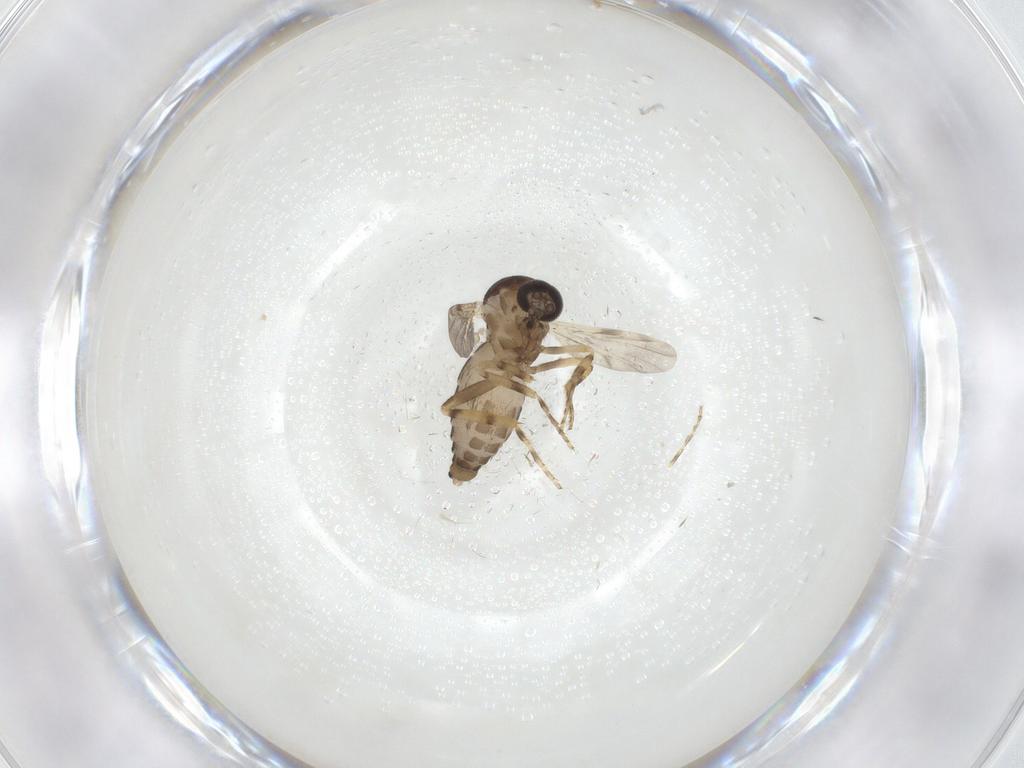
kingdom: Animalia
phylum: Arthropoda
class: Insecta
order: Diptera
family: Ceratopogonidae
